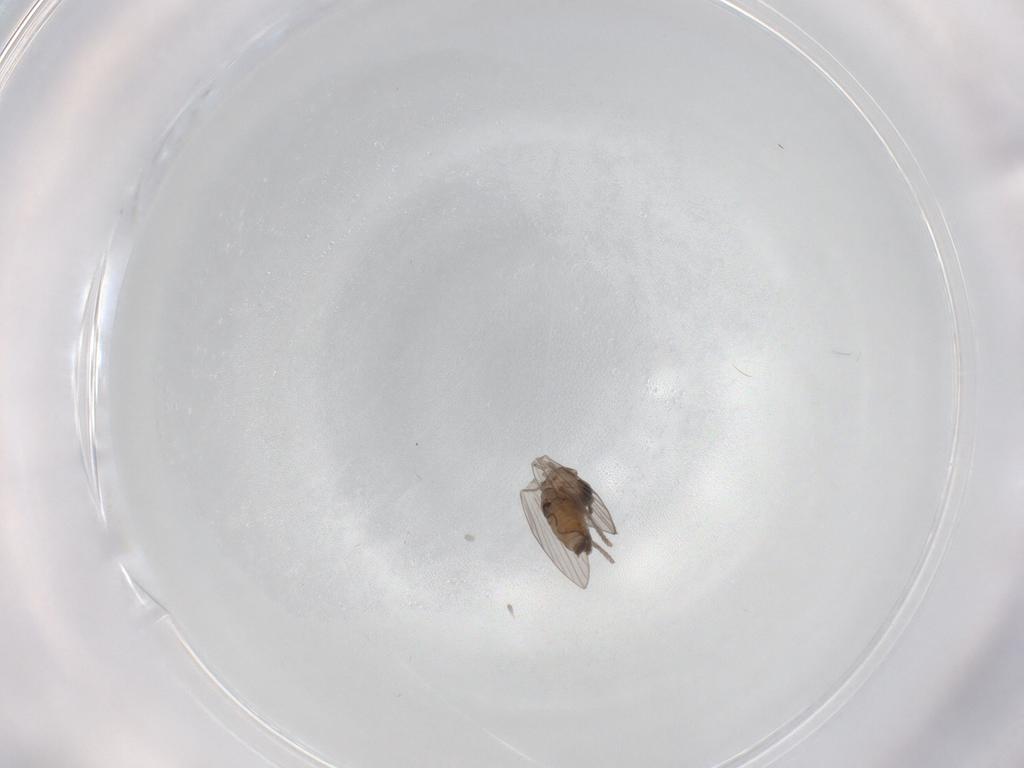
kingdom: Animalia
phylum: Arthropoda
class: Insecta
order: Diptera
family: Psychodidae
